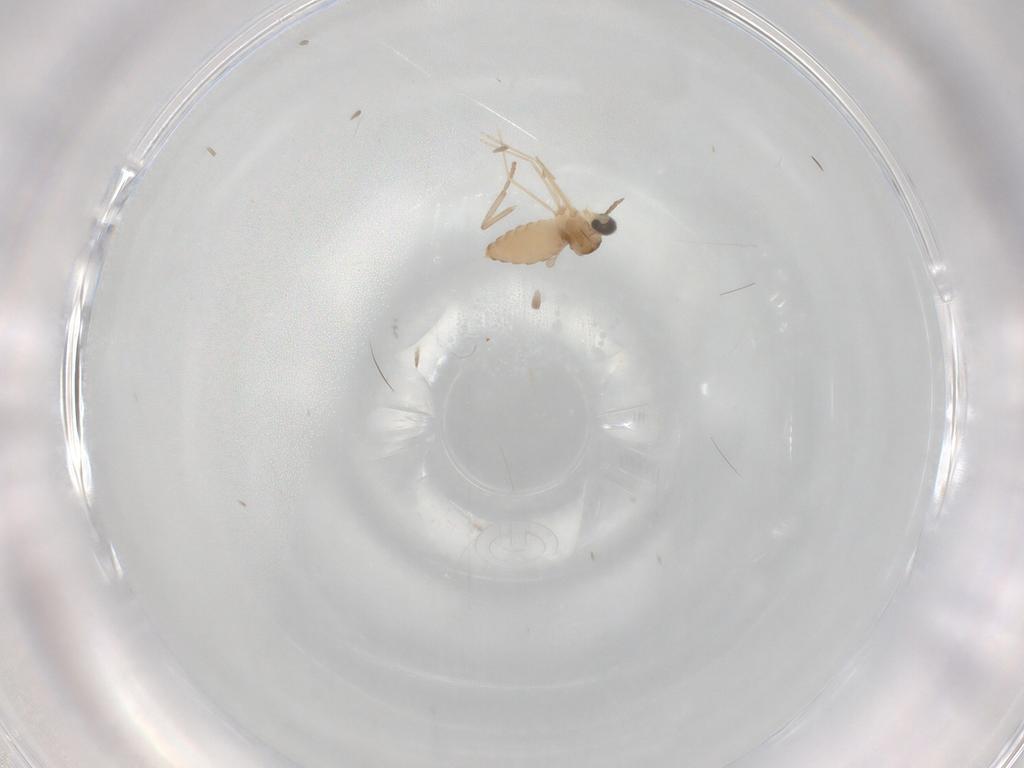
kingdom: Animalia
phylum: Arthropoda
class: Insecta
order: Diptera
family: Cecidomyiidae
